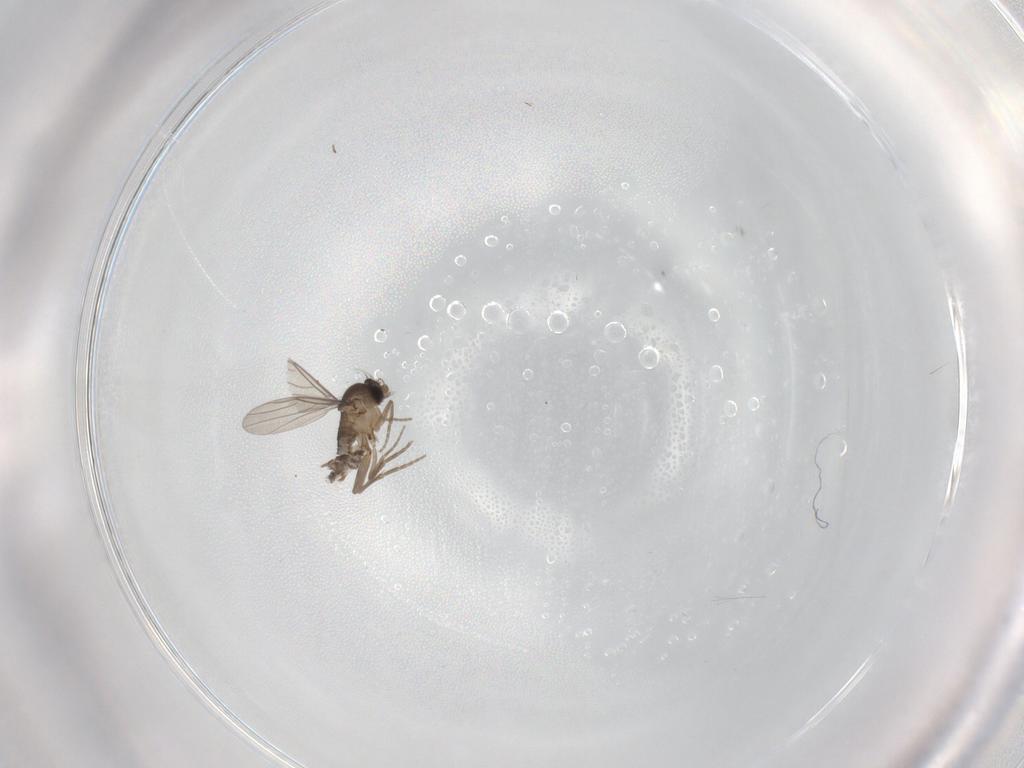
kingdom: Animalia
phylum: Arthropoda
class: Insecta
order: Diptera
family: Phoridae
